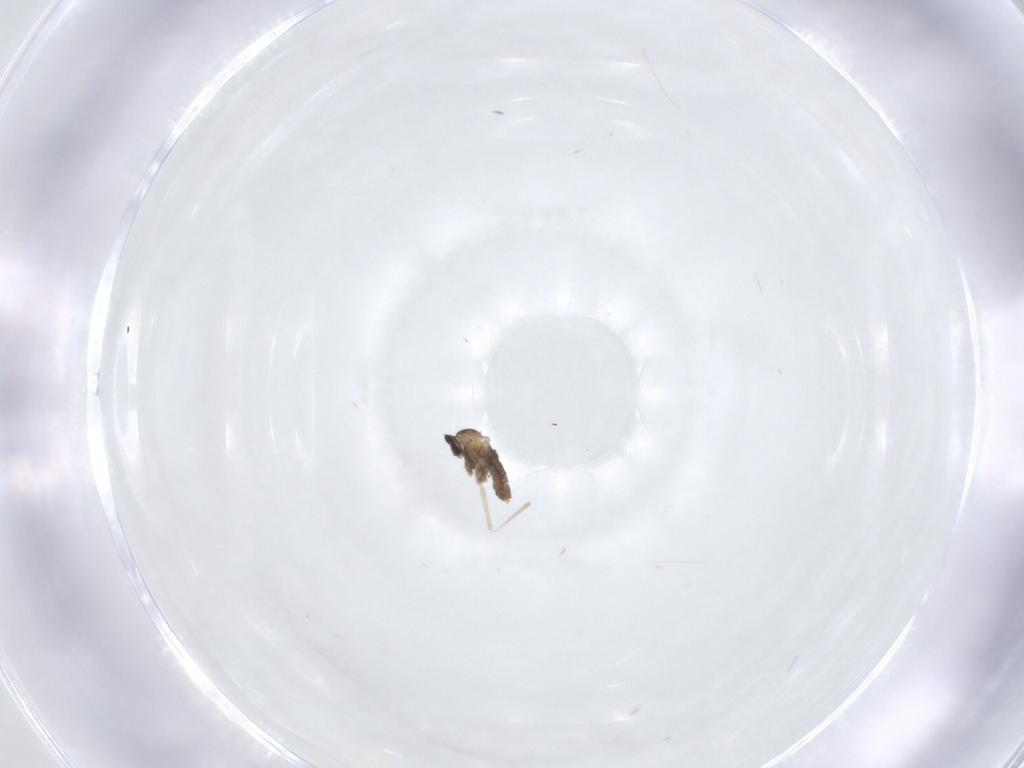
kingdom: Animalia
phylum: Arthropoda
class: Insecta
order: Diptera
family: Cecidomyiidae
